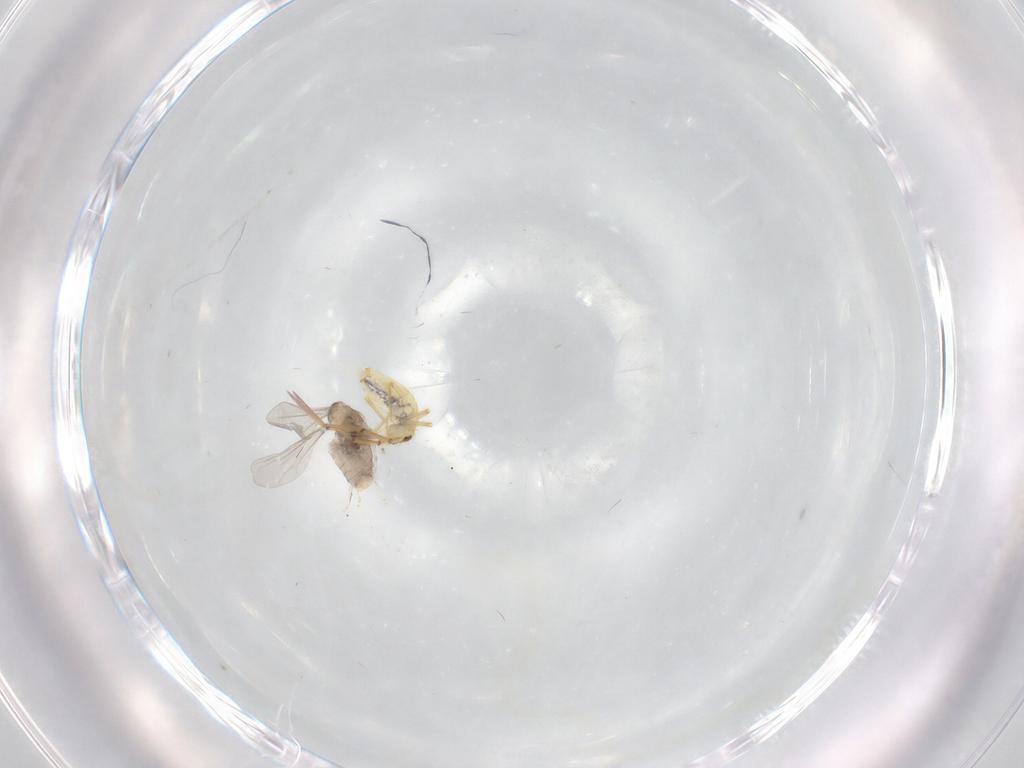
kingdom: Animalia
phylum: Arthropoda
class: Insecta
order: Diptera
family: Cecidomyiidae
